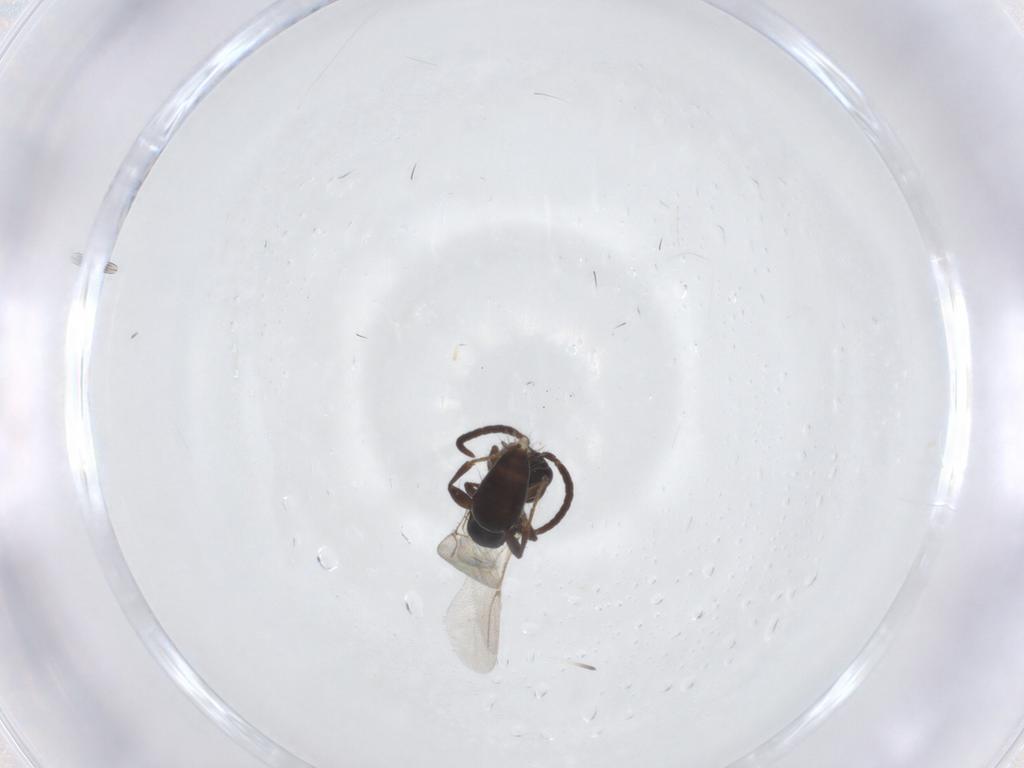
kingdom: Animalia
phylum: Arthropoda
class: Insecta
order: Hymenoptera
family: Bethylidae
